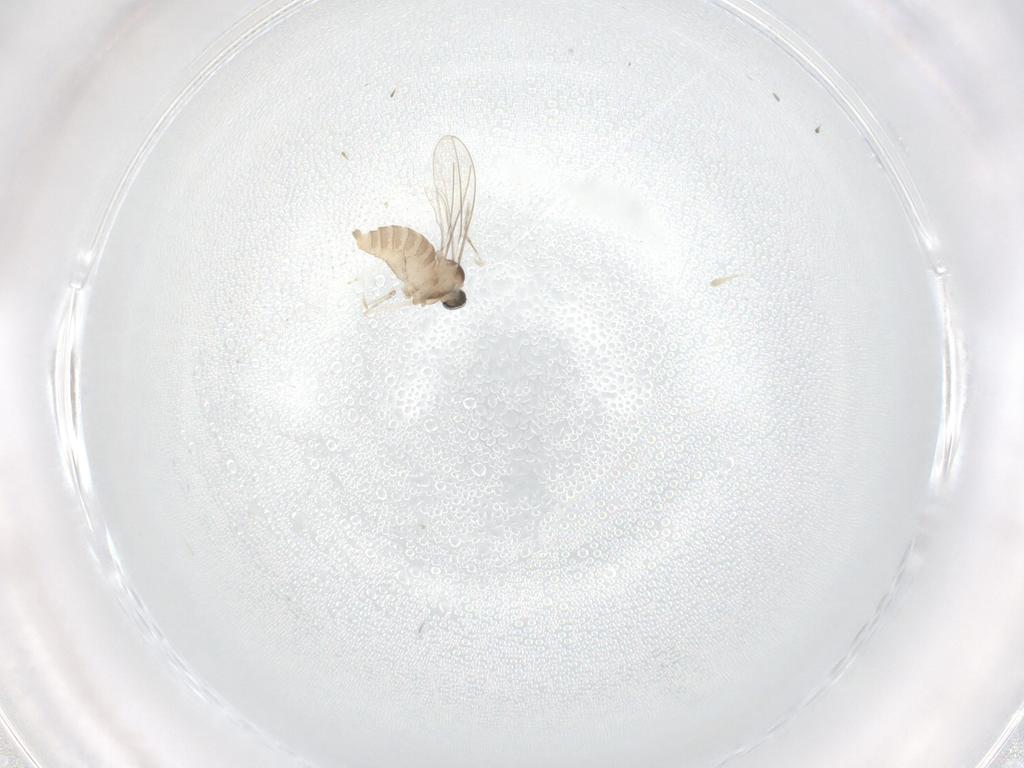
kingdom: Animalia
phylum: Arthropoda
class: Insecta
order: Diptera
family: Limoniidae
